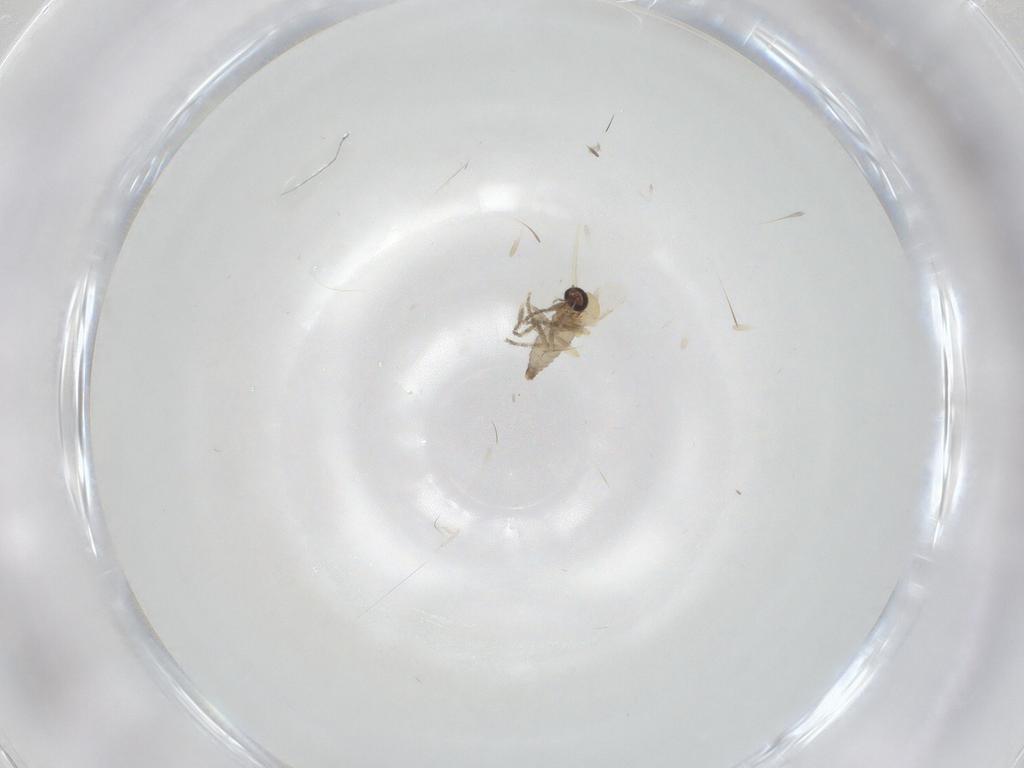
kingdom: Animalia
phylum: Arthropoda
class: Insecta
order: Diptera
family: Ceratopogonidae
